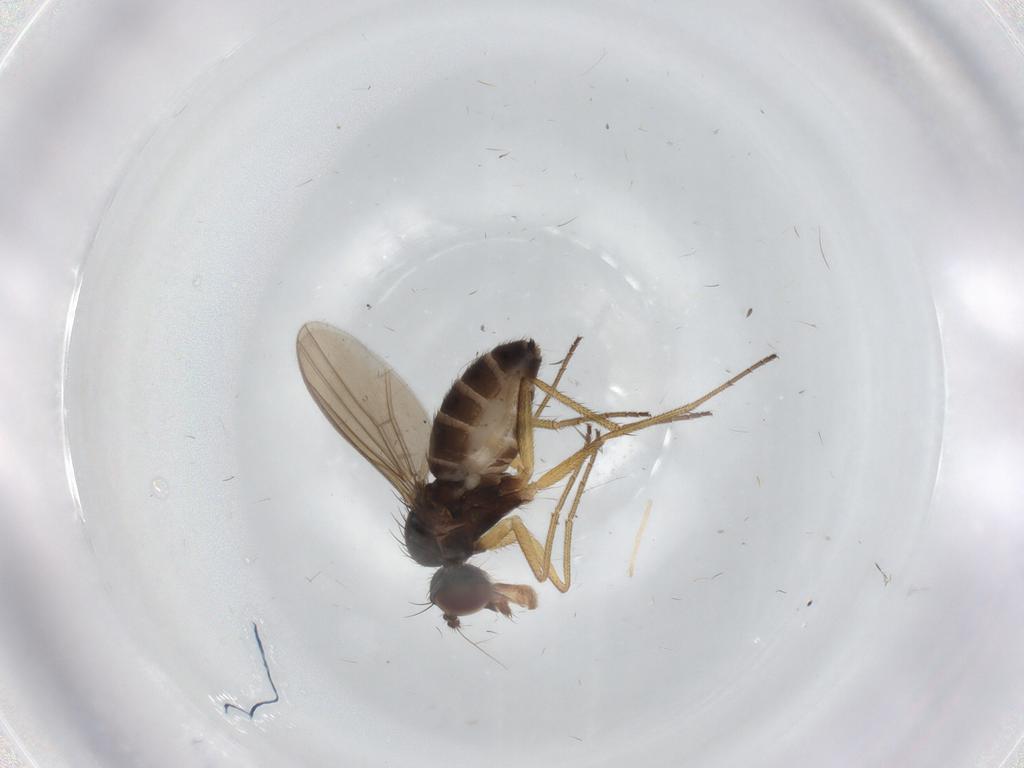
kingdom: Animalia
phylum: Arthropoda
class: Insecta
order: Diptera
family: Dolichopodidae
